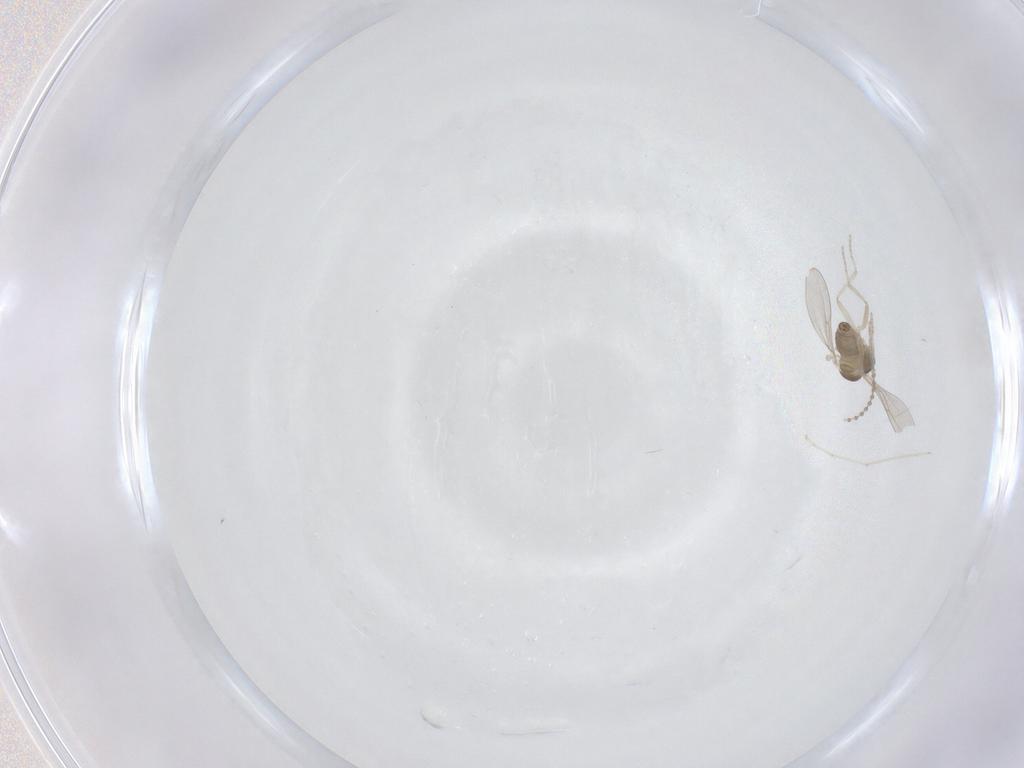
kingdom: Animalia
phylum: Arthropoda
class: Insecta
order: Diptera
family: Cecidomyiidae
